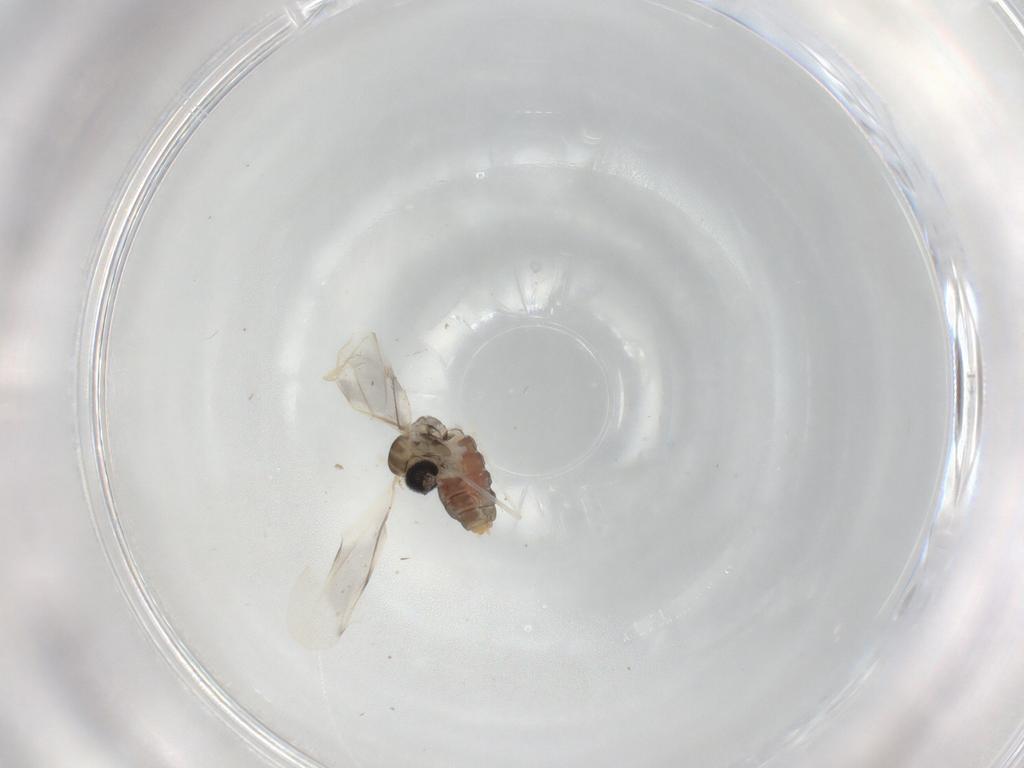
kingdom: Animalia
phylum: Arthropoda
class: Insecta
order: Diptera
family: Cecidomyiidae
